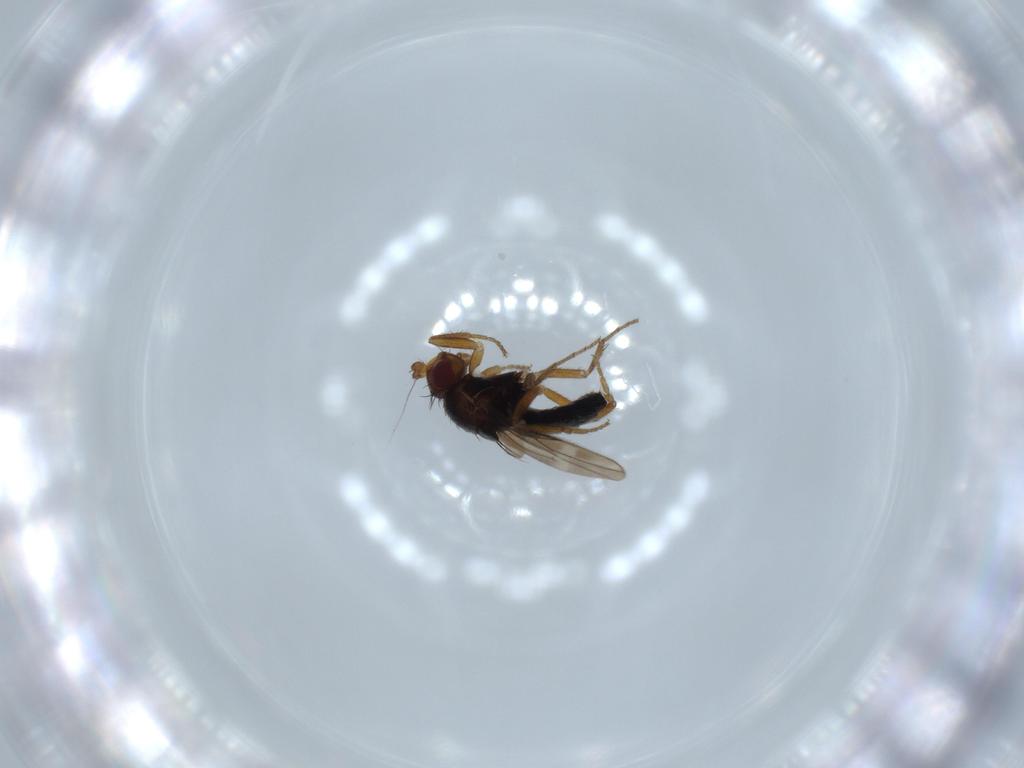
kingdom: Animalia
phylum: Arthropoda
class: Insecta
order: Diptera
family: Sphaeroceridae
